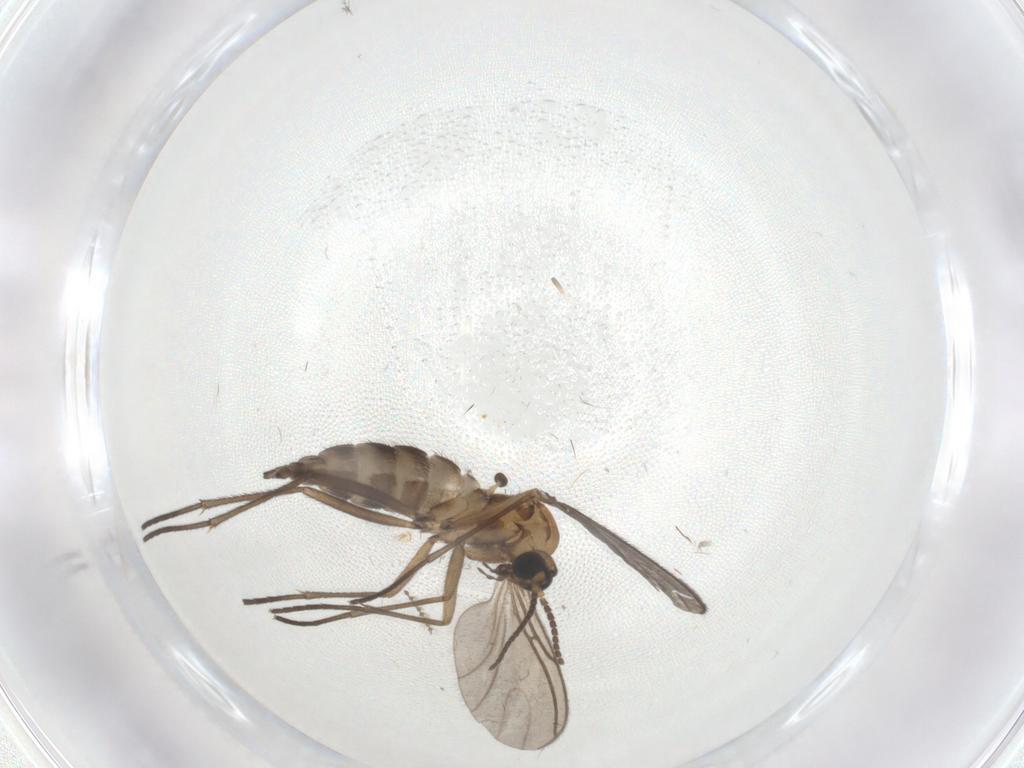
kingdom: Animalia
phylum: Arthropoda
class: Insecta
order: Diptera
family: Sciaridae
